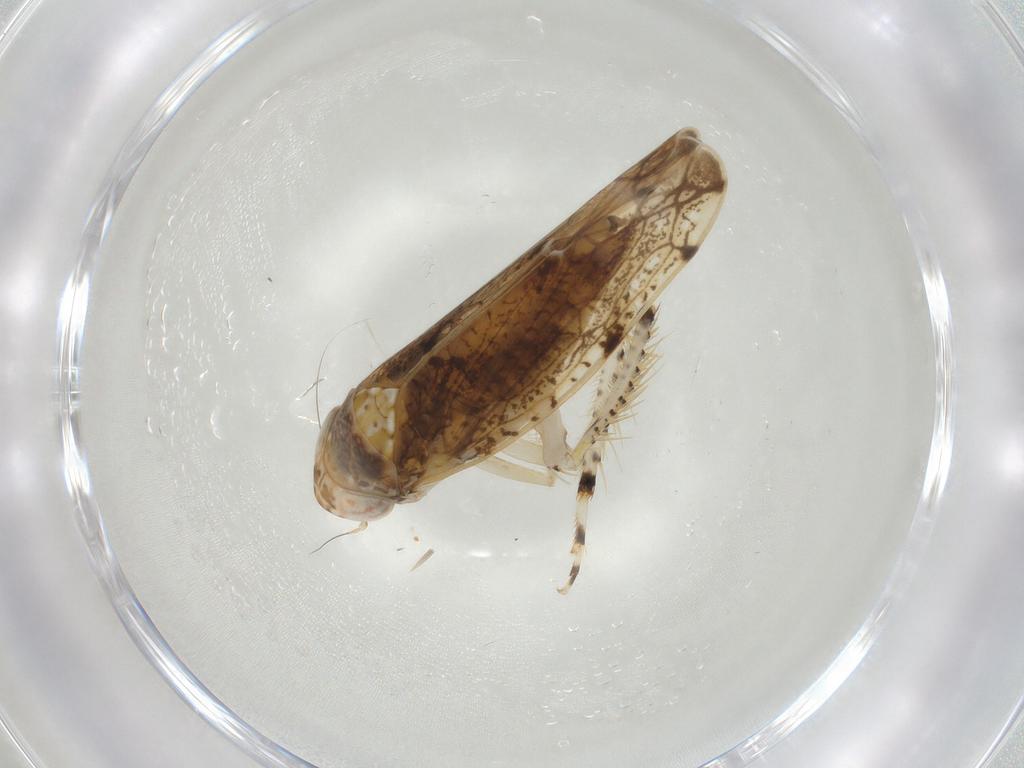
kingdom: Animalia
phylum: Arthropoda
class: Insecta
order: Hemiptera
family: Cicadellidae
